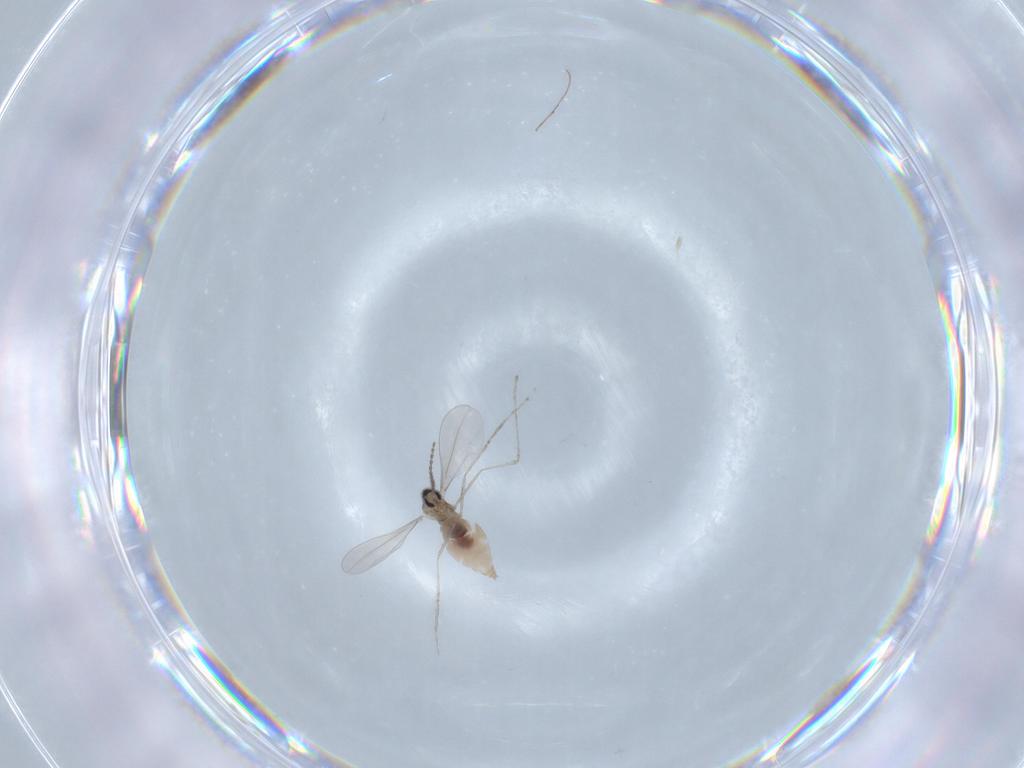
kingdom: Animalia
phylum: Arthropoda
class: Insecta
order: Diptera
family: Cecidomyiidae
